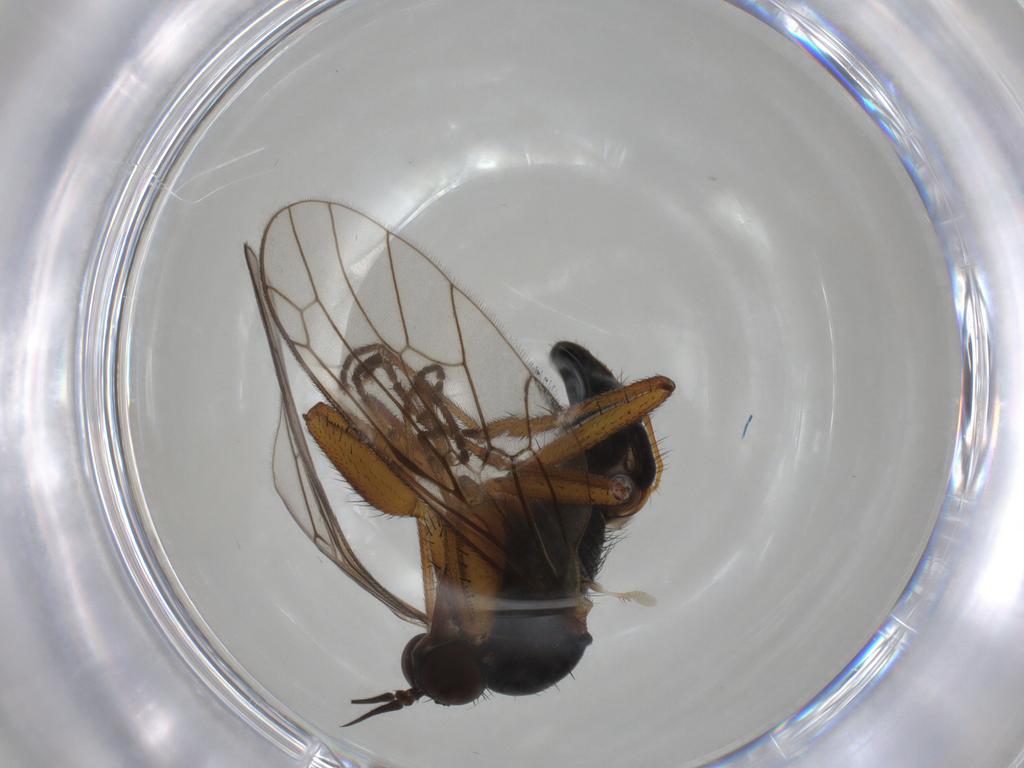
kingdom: Animalia
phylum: Arthropoda
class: Insecta
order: Diptera
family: Empididae
